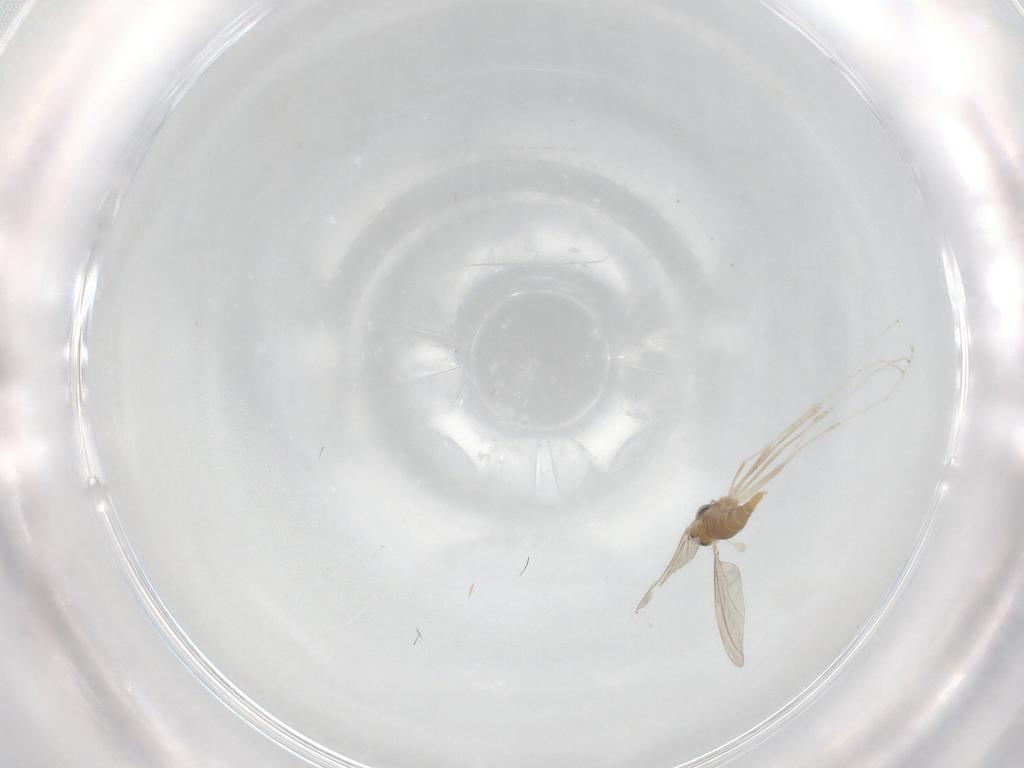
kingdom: Animalia
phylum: Arthropoda
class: Insecta
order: Diptera
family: Cecidomyiidae
